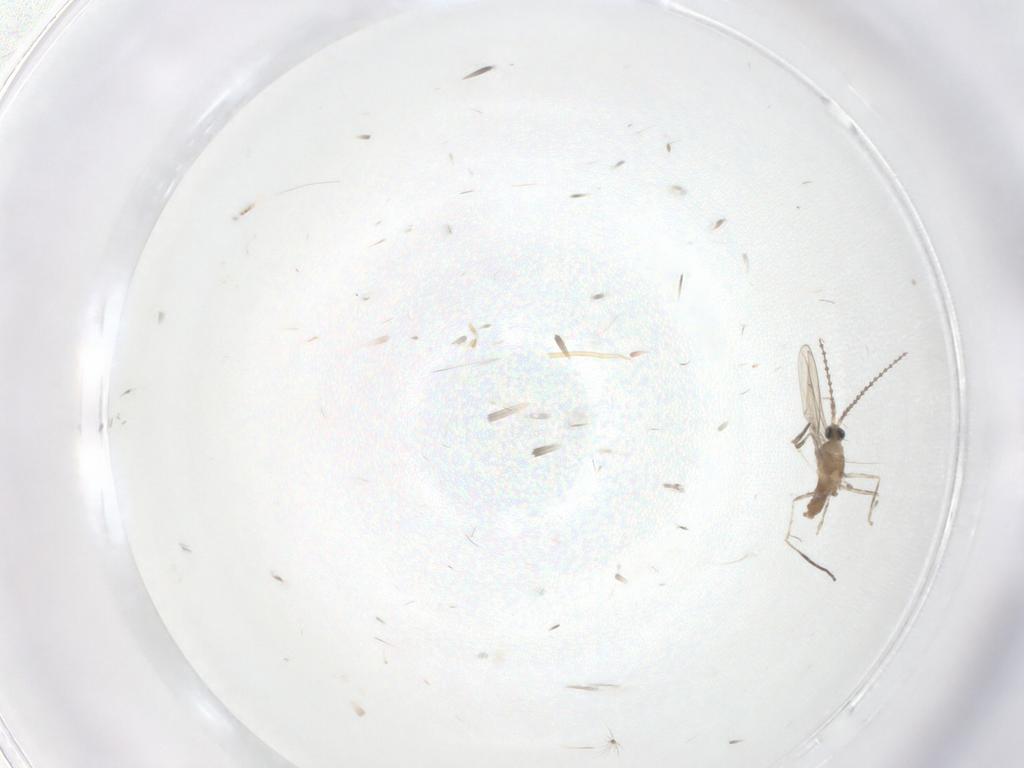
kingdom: Animalia
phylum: Arthropoda
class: Insecta
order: Diptera
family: Cecidomyiidae
